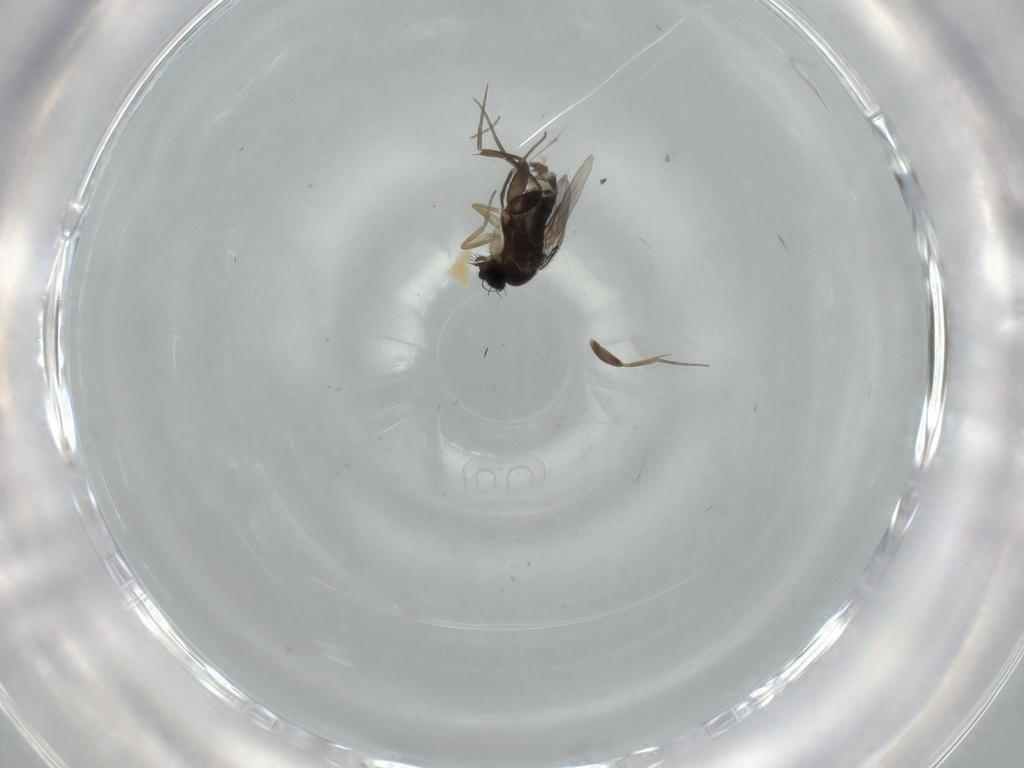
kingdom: Animalia
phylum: Arthropoda
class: Insecta
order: Diptera
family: Phoridae
